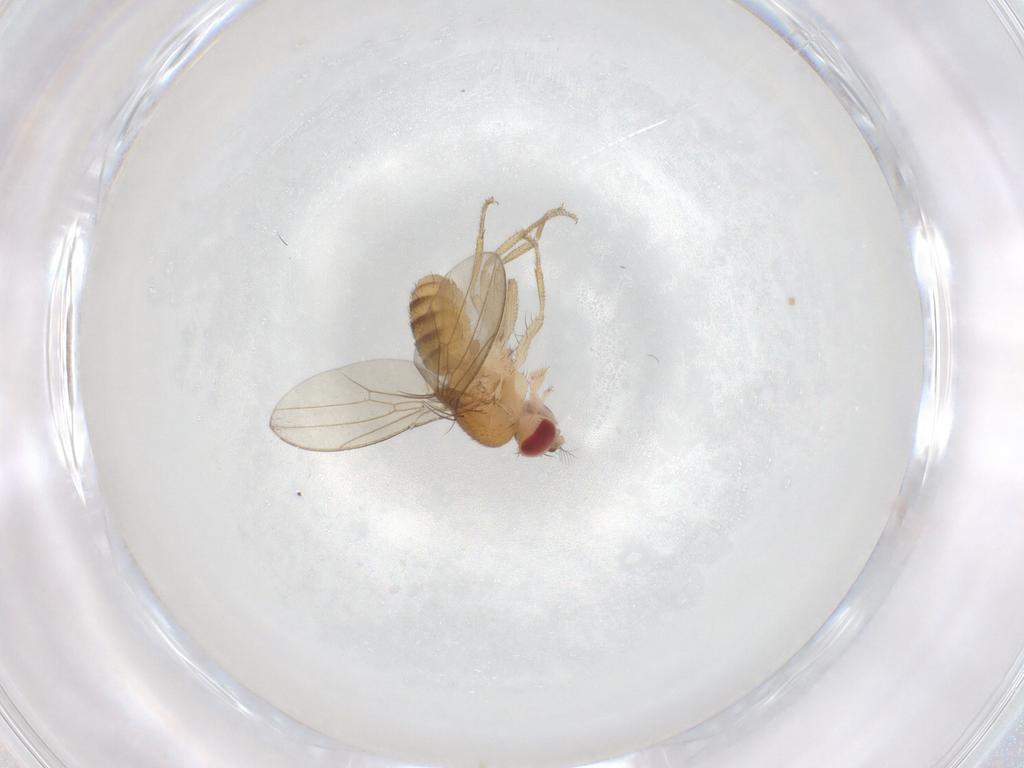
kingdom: Animalia
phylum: Arthropoda
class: Insecta
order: Diptera
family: Drosophilidae
